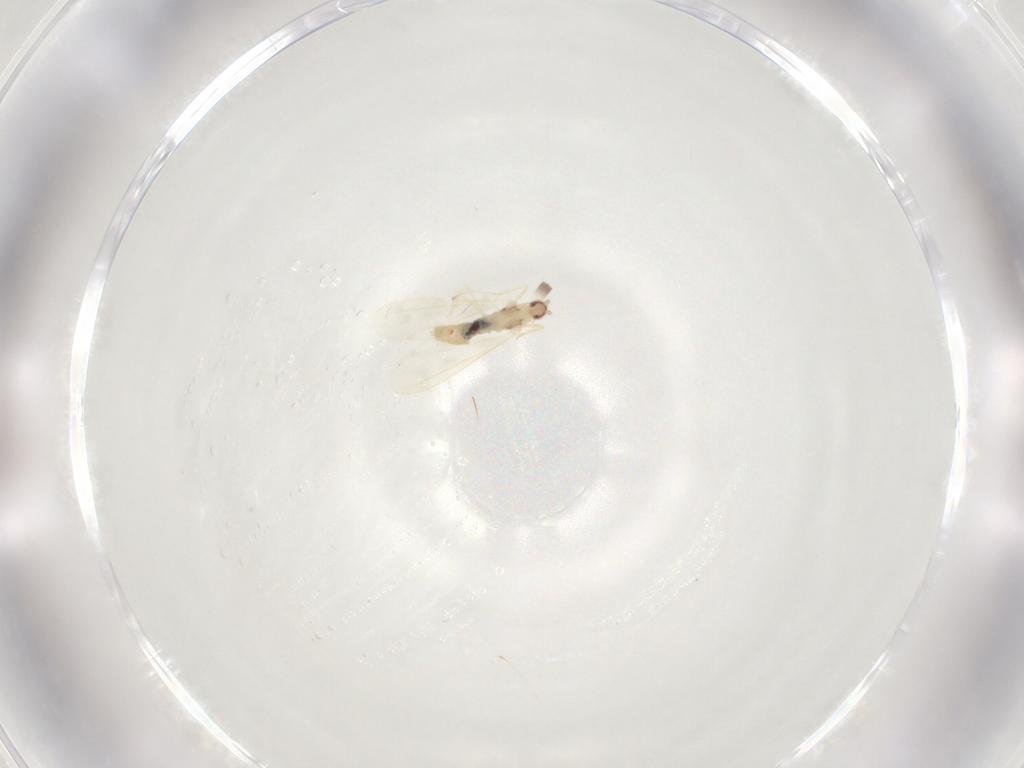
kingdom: Animalia
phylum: Arthropoda
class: Insecta
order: Diptera
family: Cecidomyiidae
